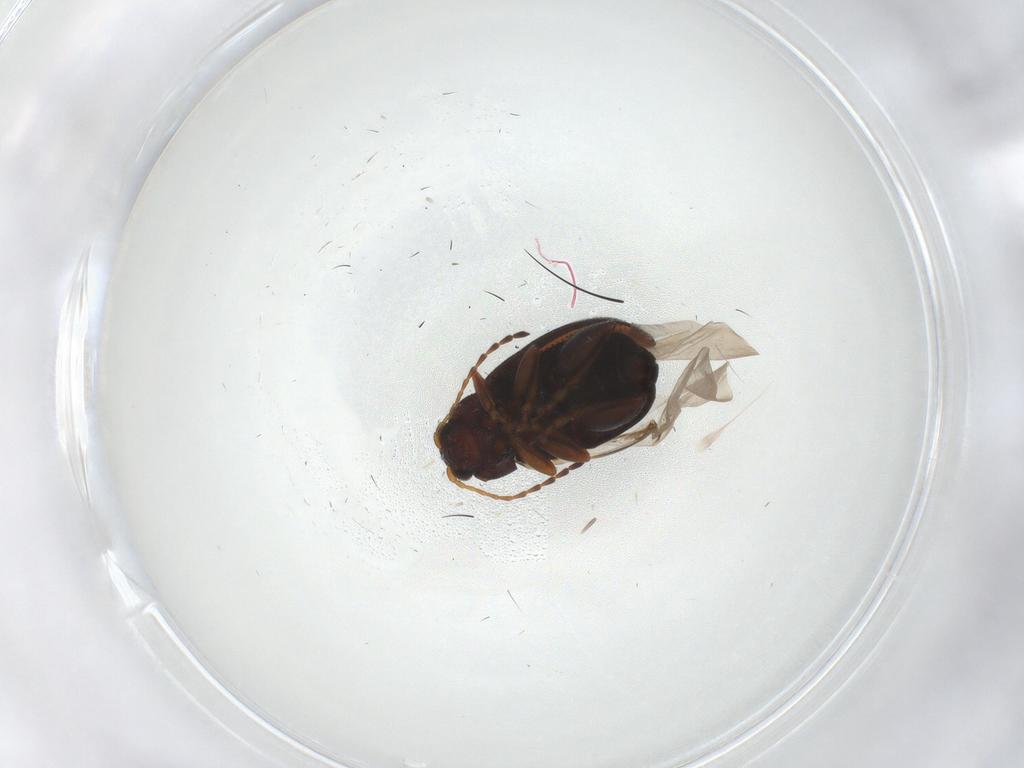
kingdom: Animalia
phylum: Arthropoda
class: Insecta
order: Coleoptera
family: Chrysomelidae
